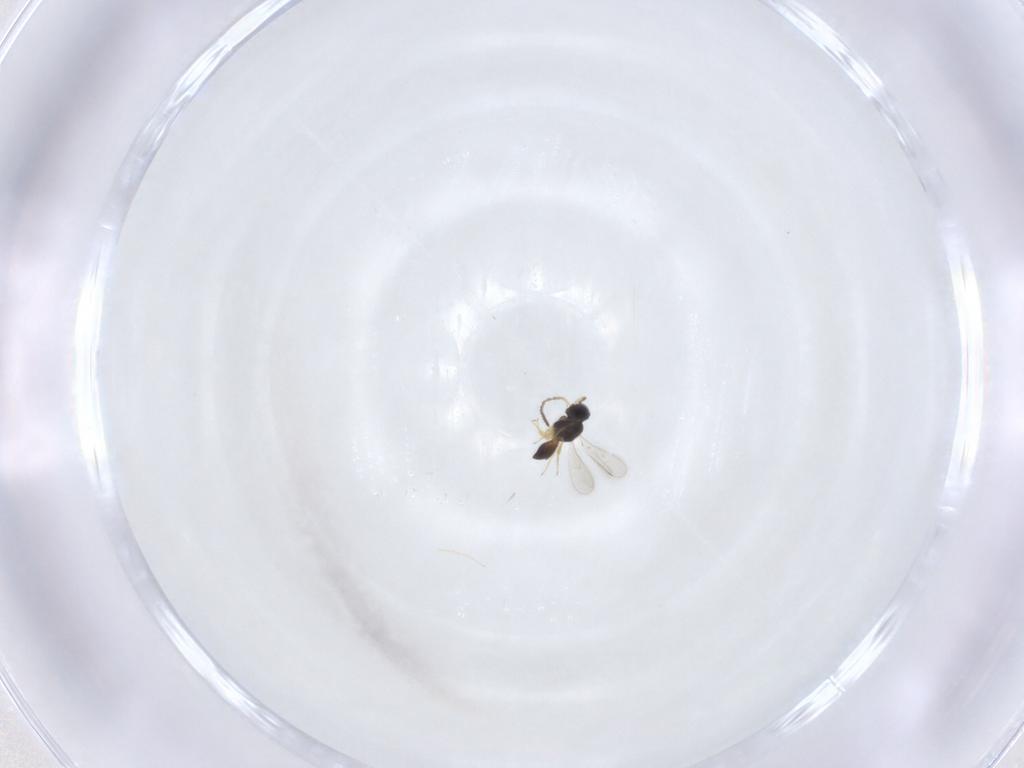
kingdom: Animalia
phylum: Arthropoda
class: Insecta
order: Hymenoptera
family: Scelionidae
